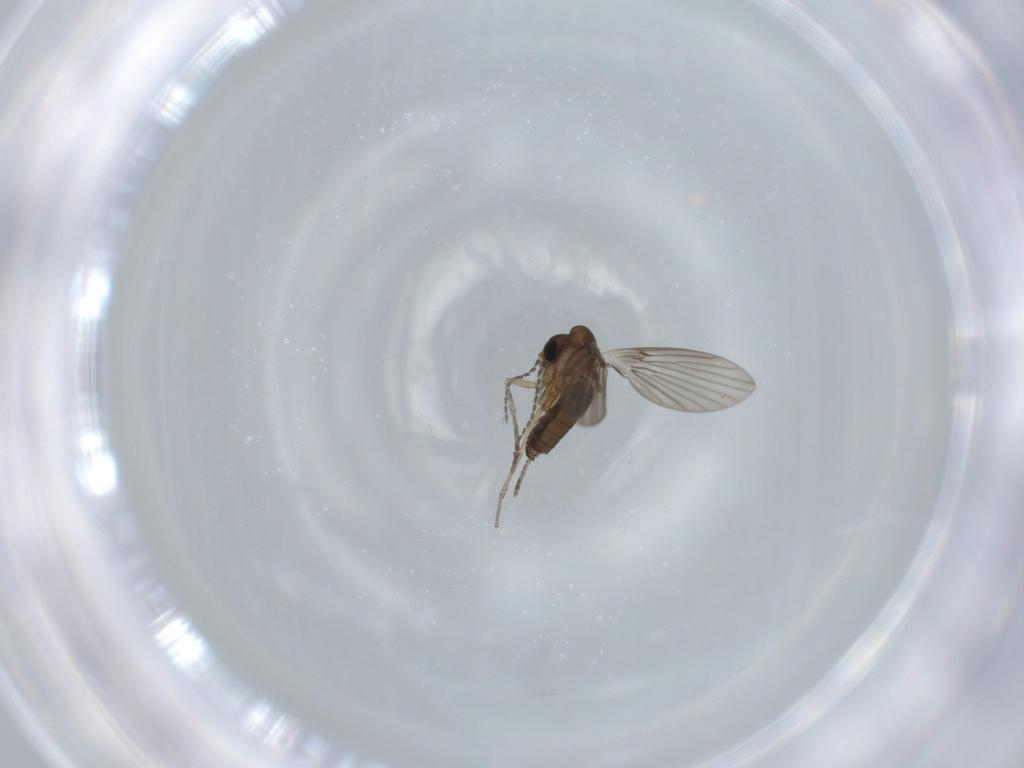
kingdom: Animalia
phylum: Arthropoda
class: Insecta
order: Diptera
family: Psychodidae
